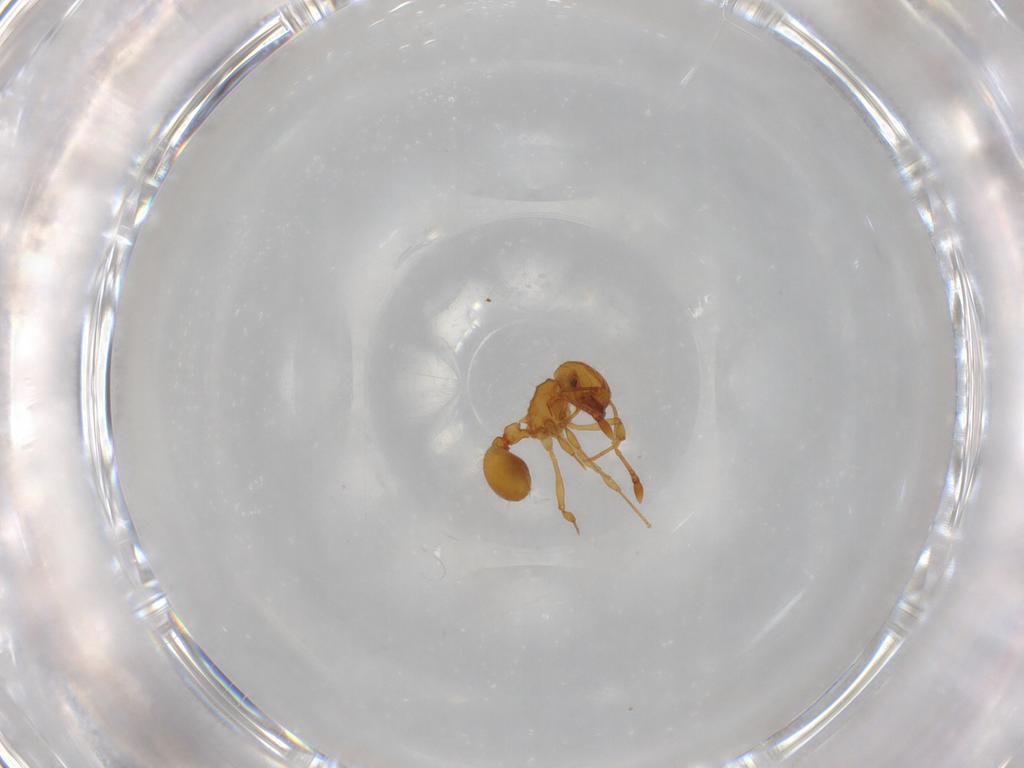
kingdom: Animalia
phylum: Arthropoda
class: Insecta
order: Hymenoptera
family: Formicidae
